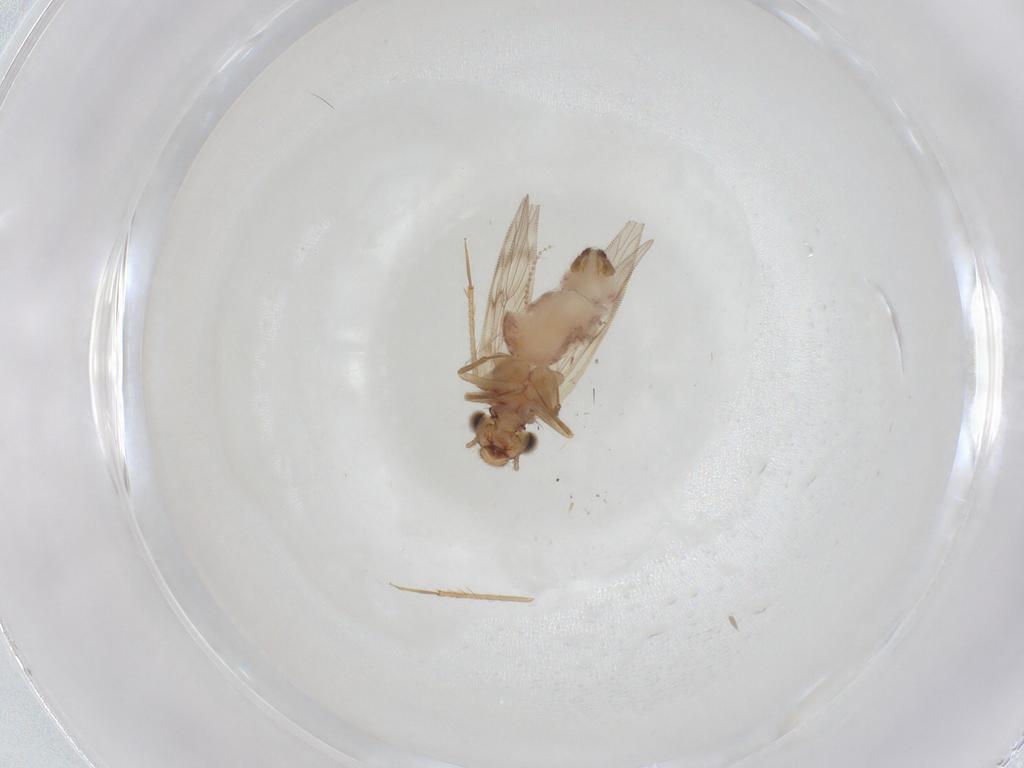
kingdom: Animalia
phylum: Arthropoda
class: Insecta
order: Psocodea
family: Lepidopsocidae
